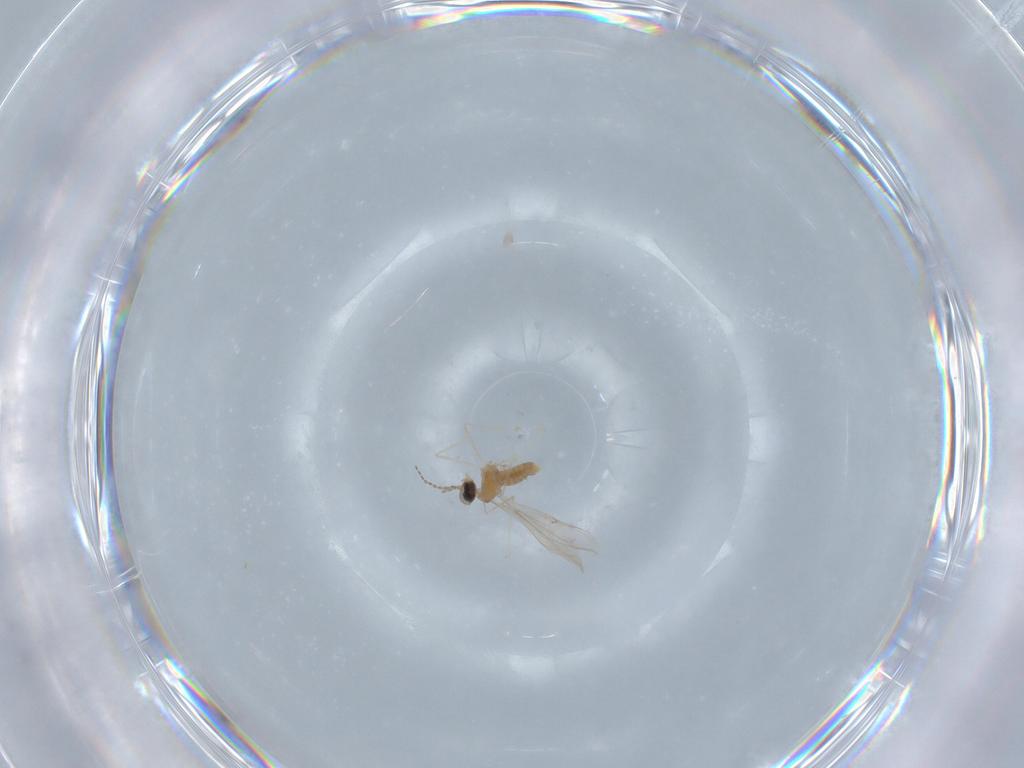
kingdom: Animalia
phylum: Arthropoda
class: Insecta
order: Diptera
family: Cecidomyiidae
